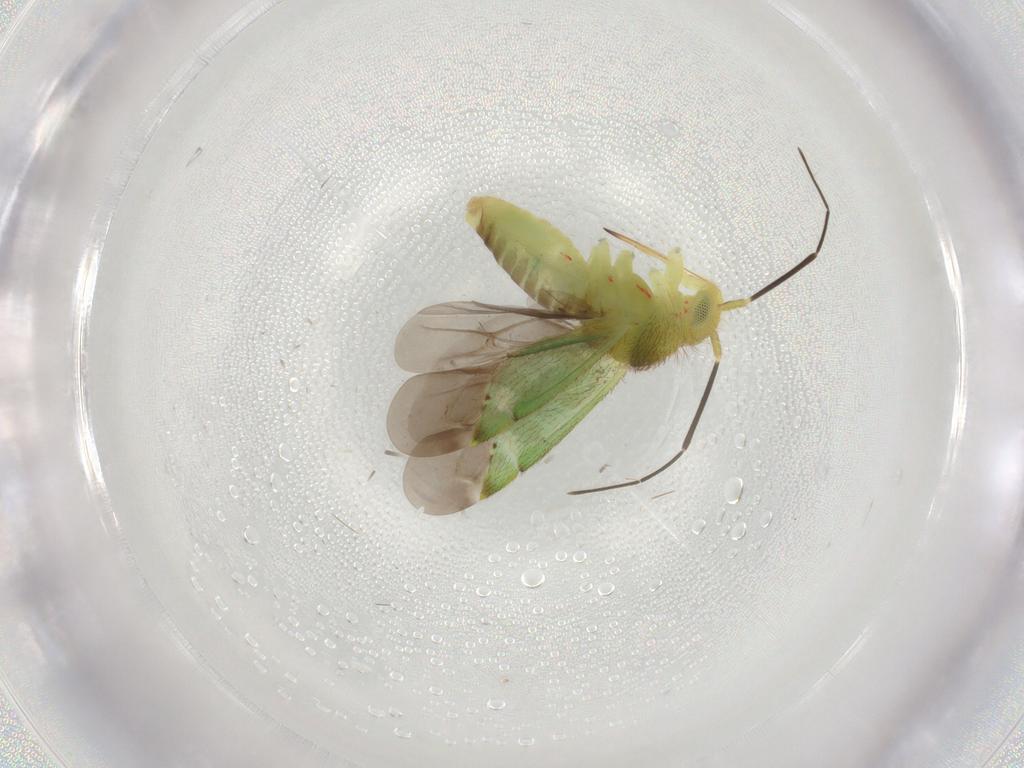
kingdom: Animalia
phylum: Arthropoda
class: Insecta
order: Hemiptera
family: Miridae
